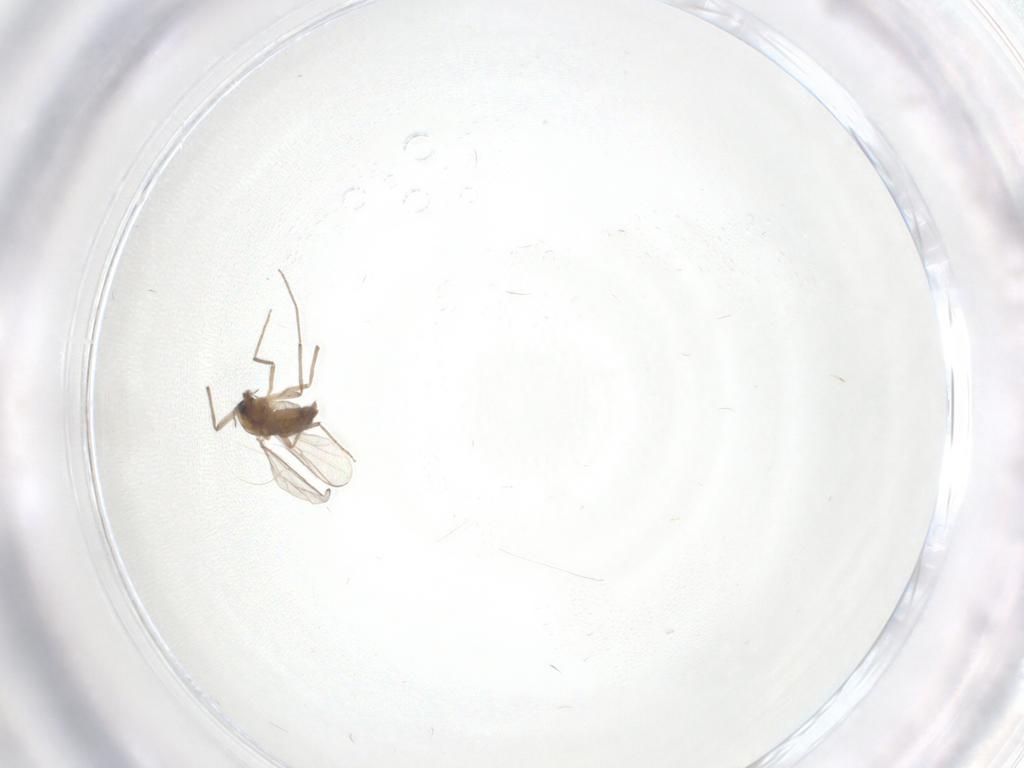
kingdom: Animalia
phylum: Arthropoda
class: Insecta
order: Diptera
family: Chironomidae
